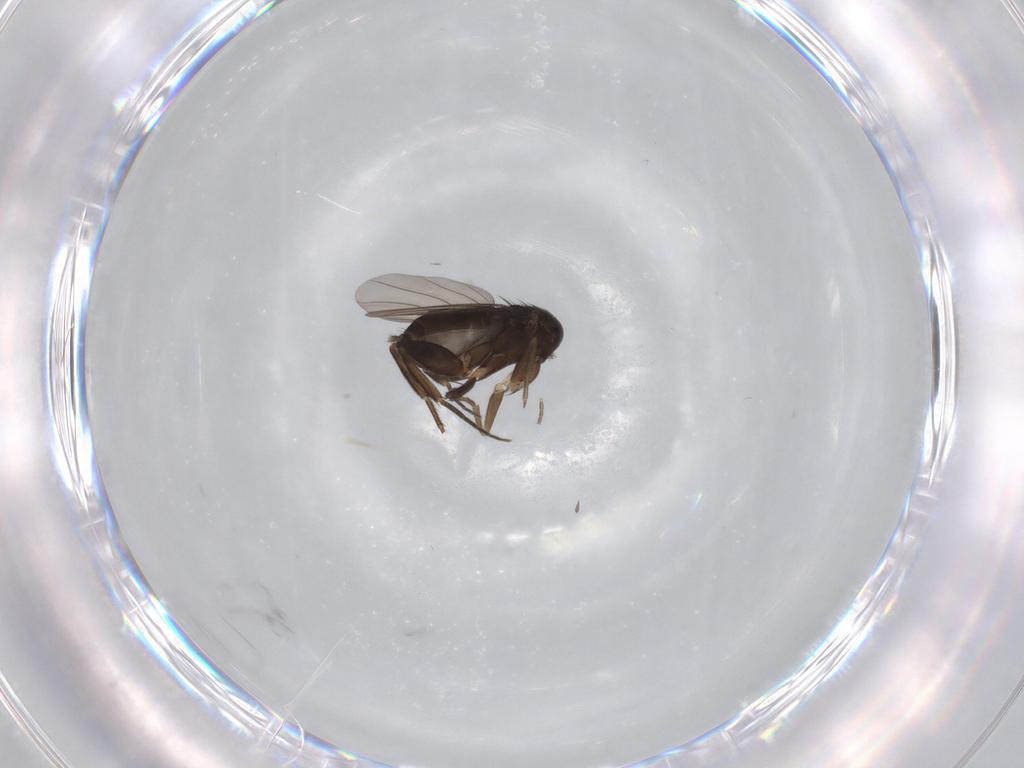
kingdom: Animalia
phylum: Arthropoda
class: Insecta
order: Diptera
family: Phoridae
